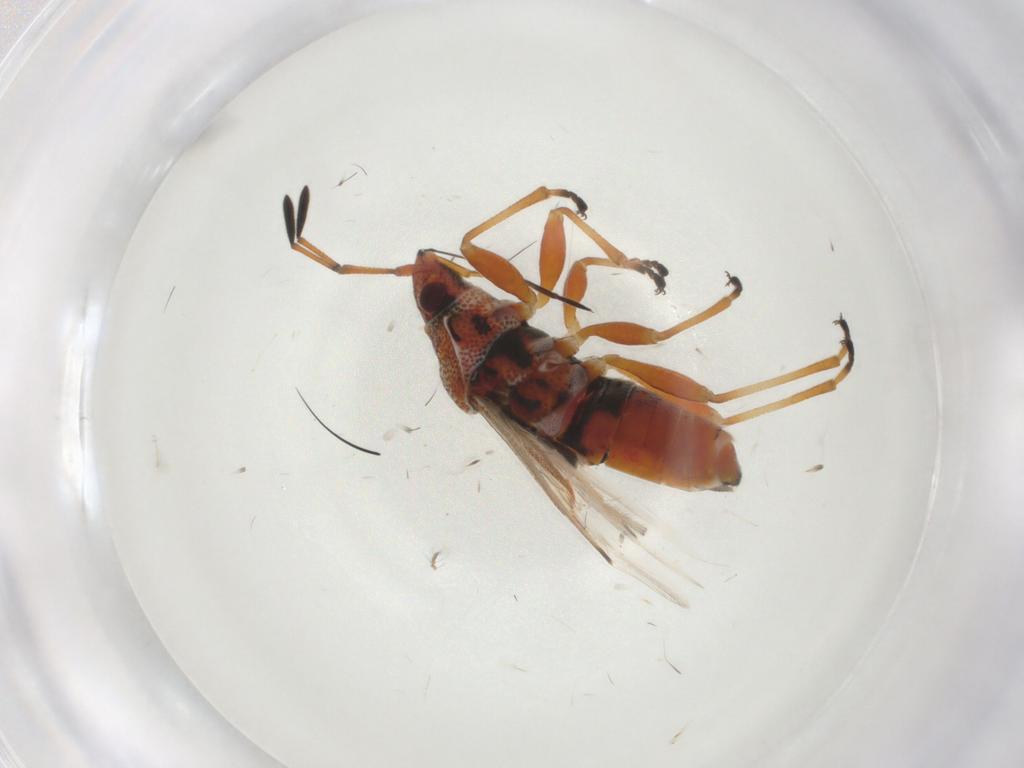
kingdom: Animalia
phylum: Arthropoda
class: Insecta
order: Hemiptera
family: Lygaeidae
